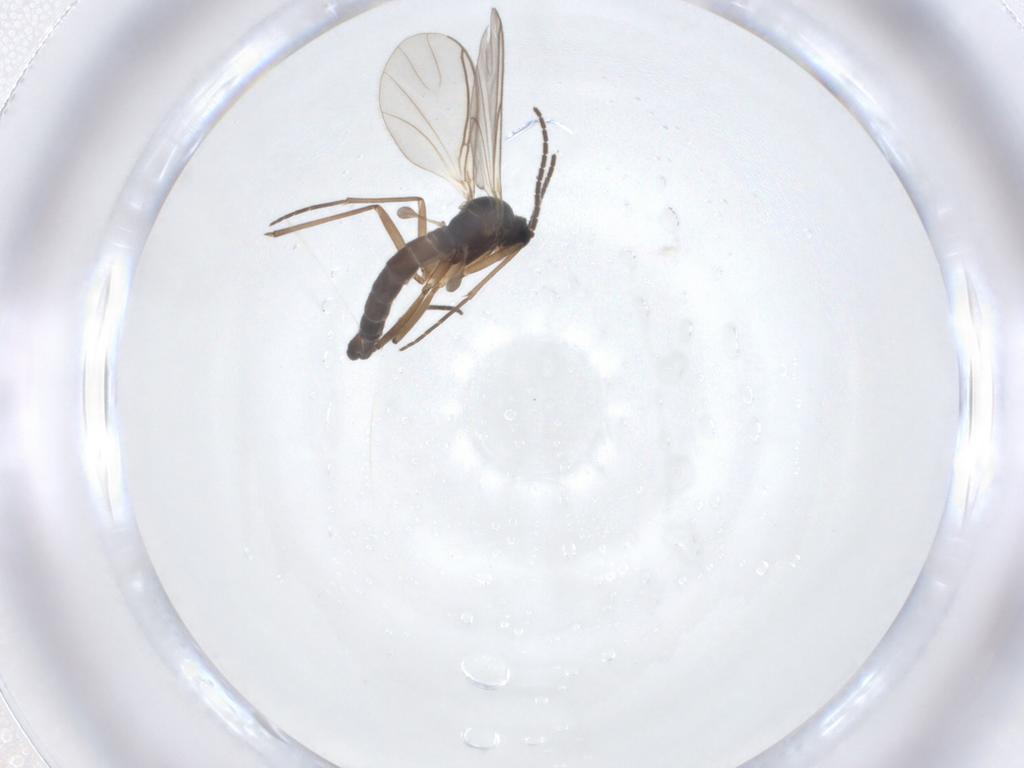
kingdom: Animalia
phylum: Arthropoda
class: Insecta
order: Diptera
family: Sciaridae
